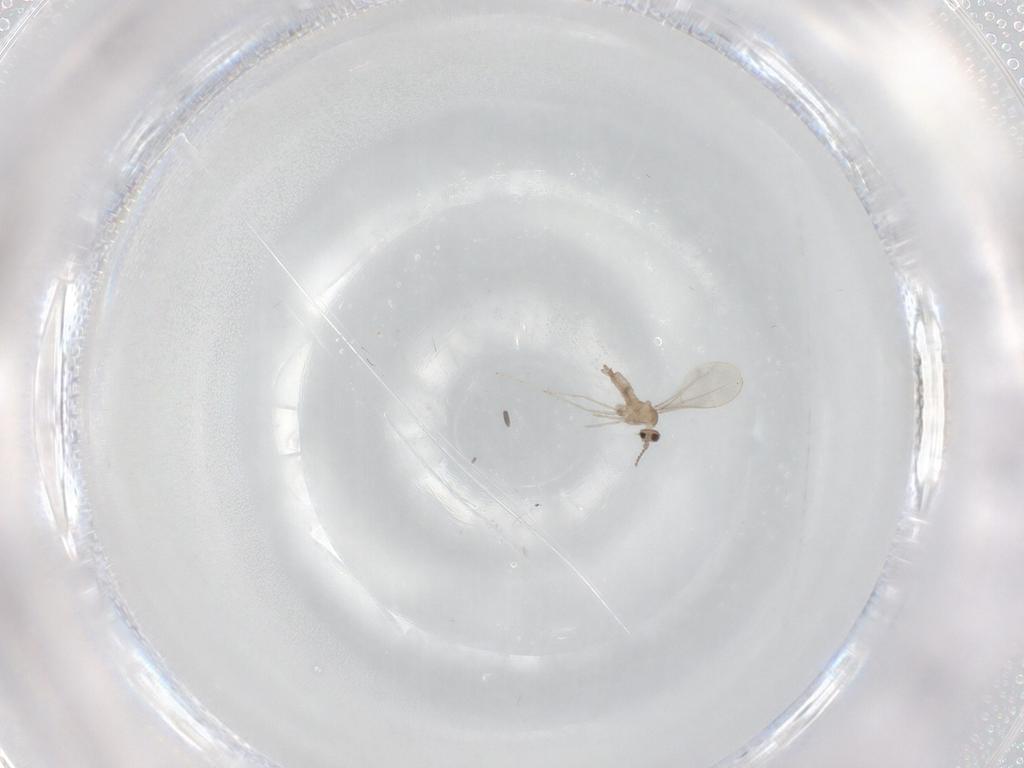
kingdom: Animalia
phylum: Arthropoda
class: Insecta
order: Diptera
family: Cecidomyiidae
